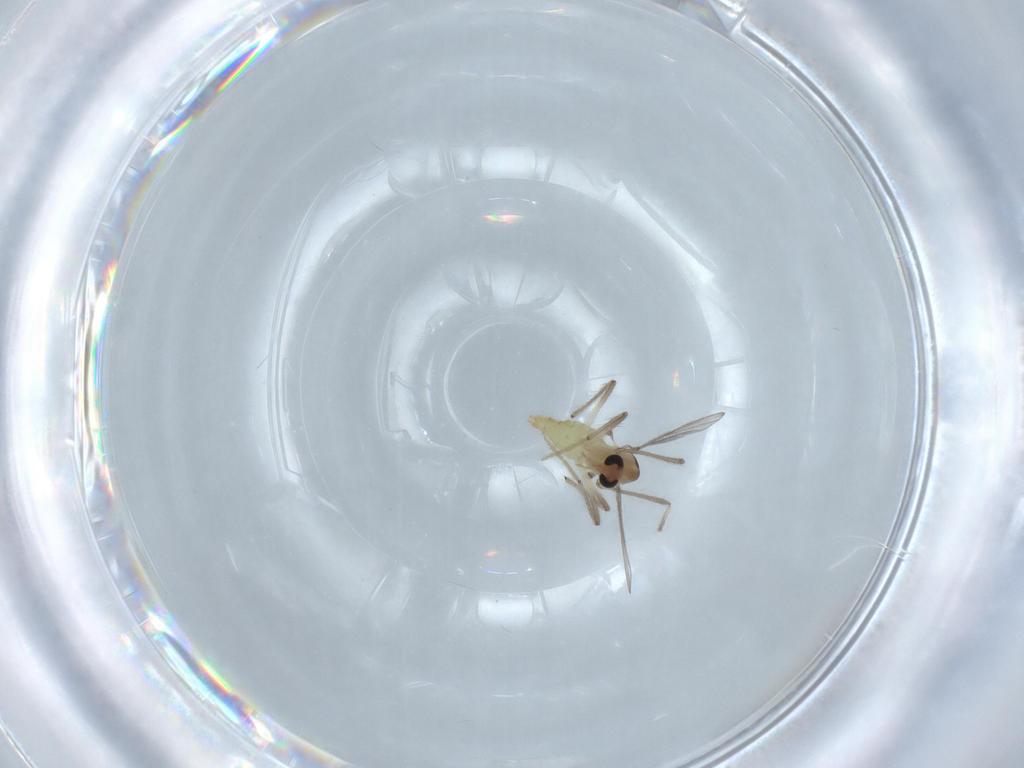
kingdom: Animalia
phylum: Arthropoda
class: Insecta
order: Diptera
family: Chironomidae
